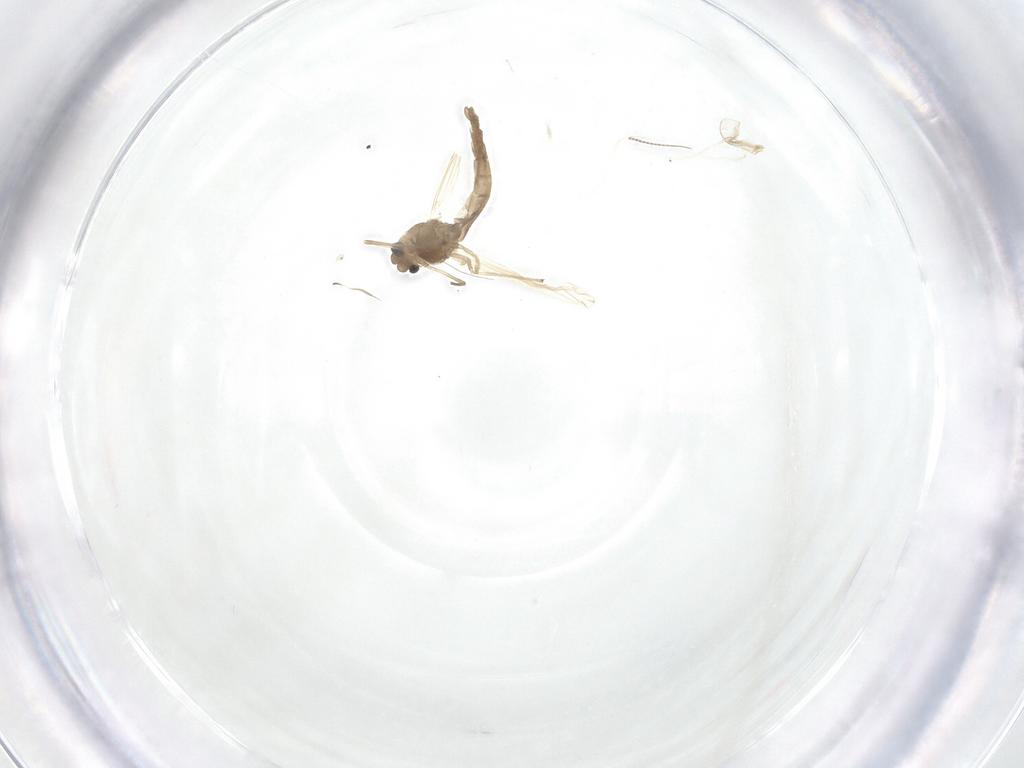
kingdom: Animalia
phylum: Arthropoda
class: Insecta
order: Diptera
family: Chironomidae
